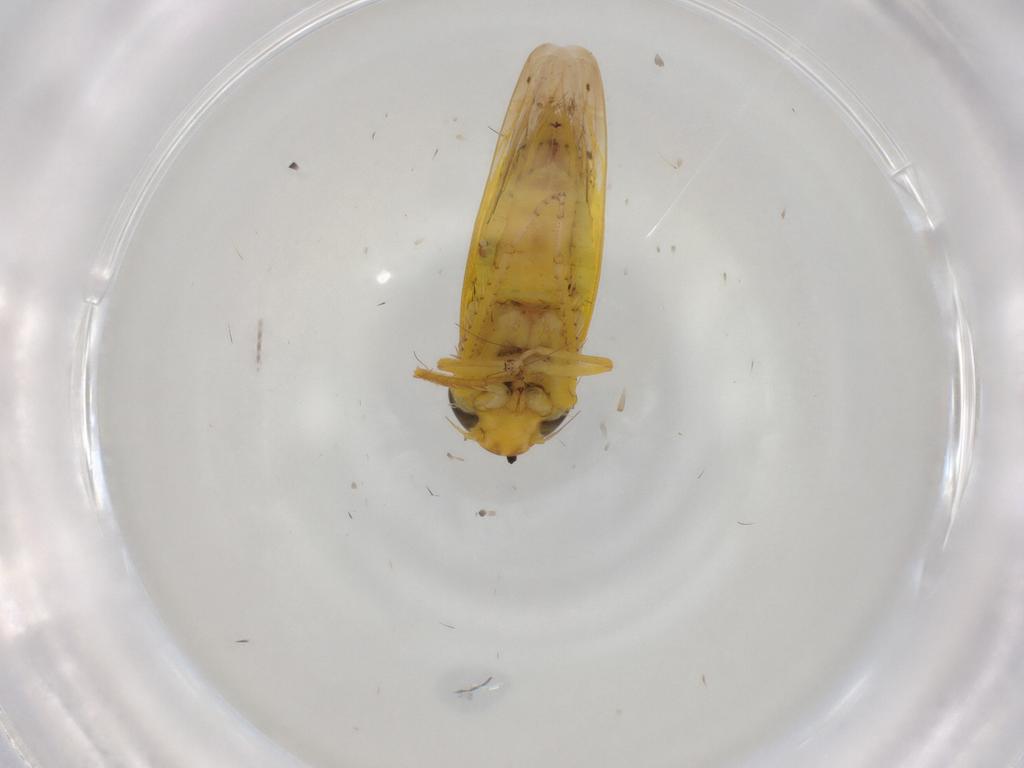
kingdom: Animalia
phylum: Arthropoda
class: Insecta
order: Hemiptera
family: Cicadellidae
